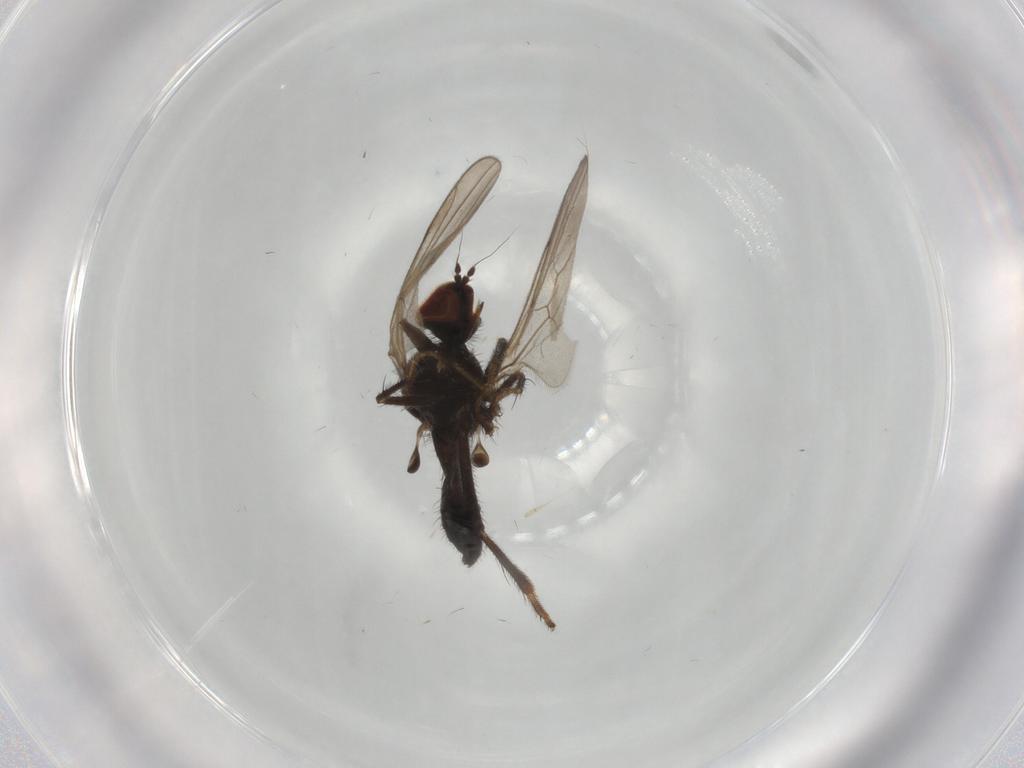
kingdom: Animalia
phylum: Arthropoda
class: Insecta
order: Diptera
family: Hybotidae
